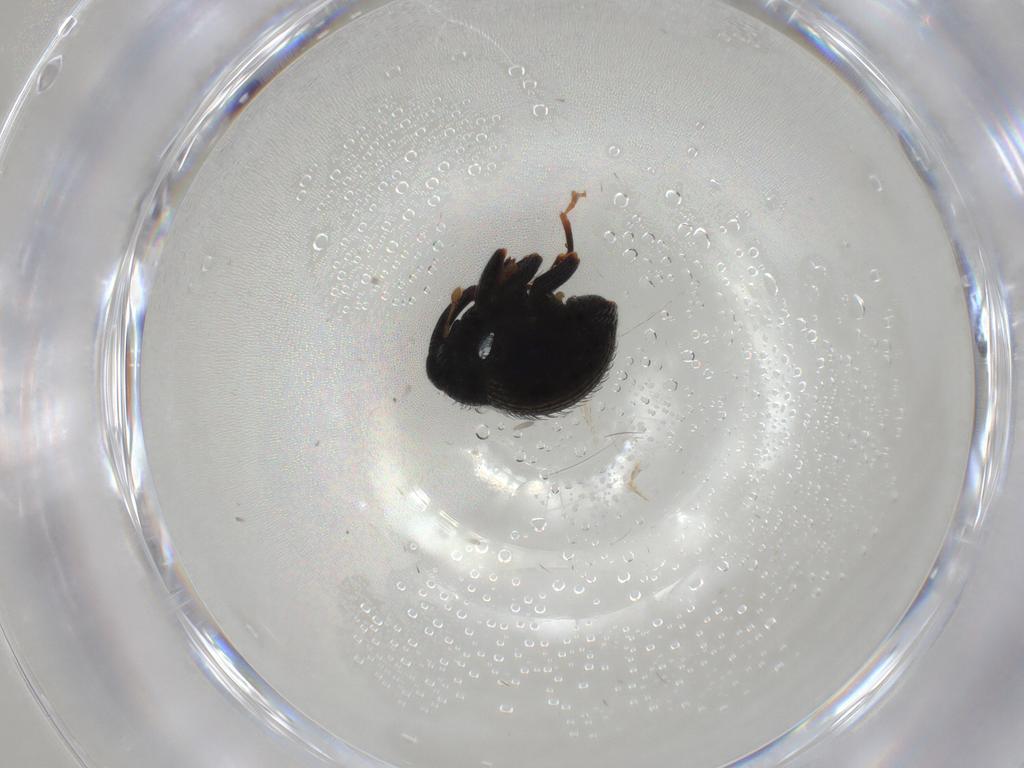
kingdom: Animalia
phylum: Arthropoda
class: Insecta
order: Coleoptera
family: Curculionidae
